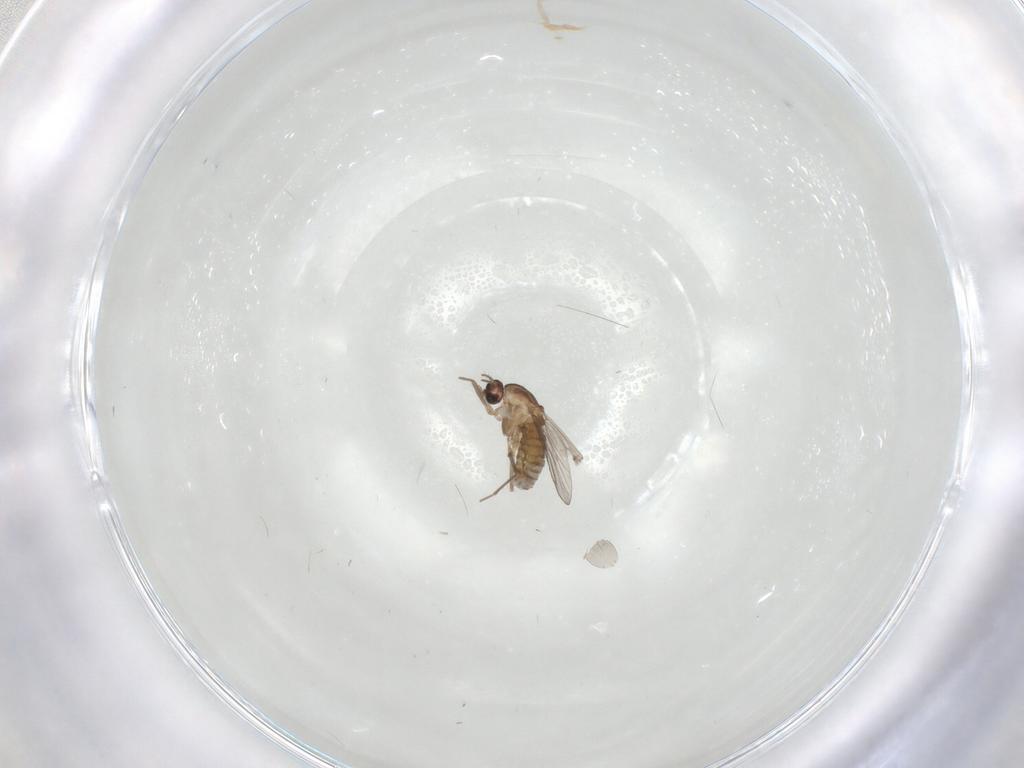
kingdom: Animalia
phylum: Arthropoda
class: Insecta
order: Diptera
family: Chironomidae
